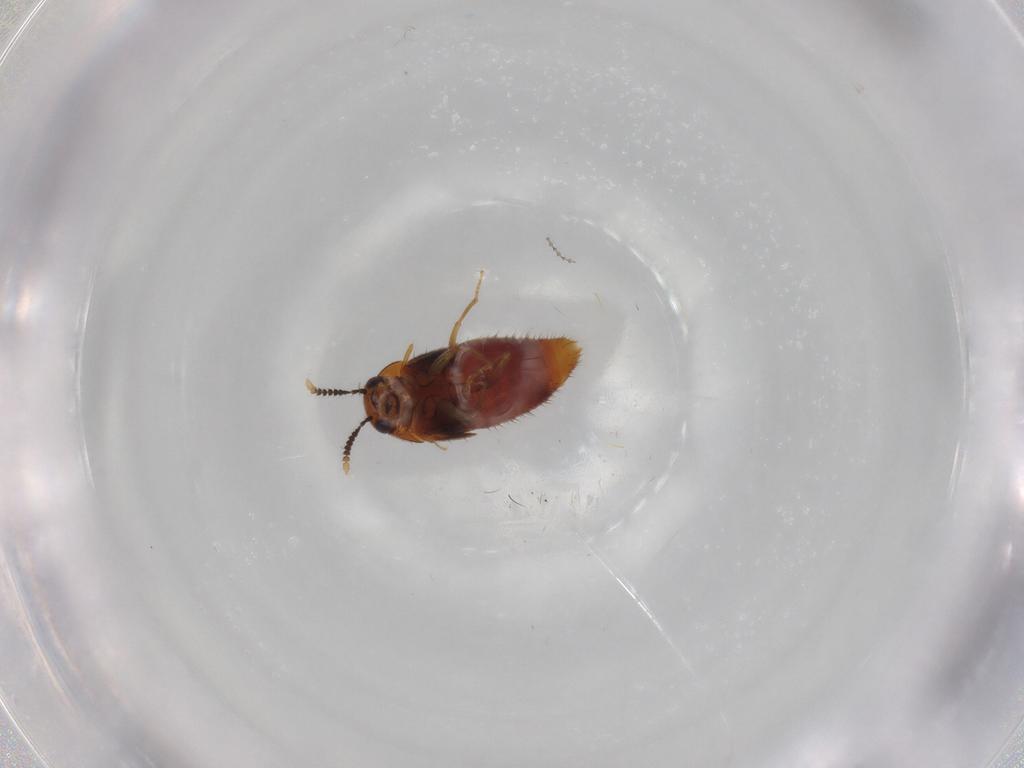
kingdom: Animalia
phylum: Arthropoda
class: Insecta
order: Coleoptera
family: Staphylinidae
